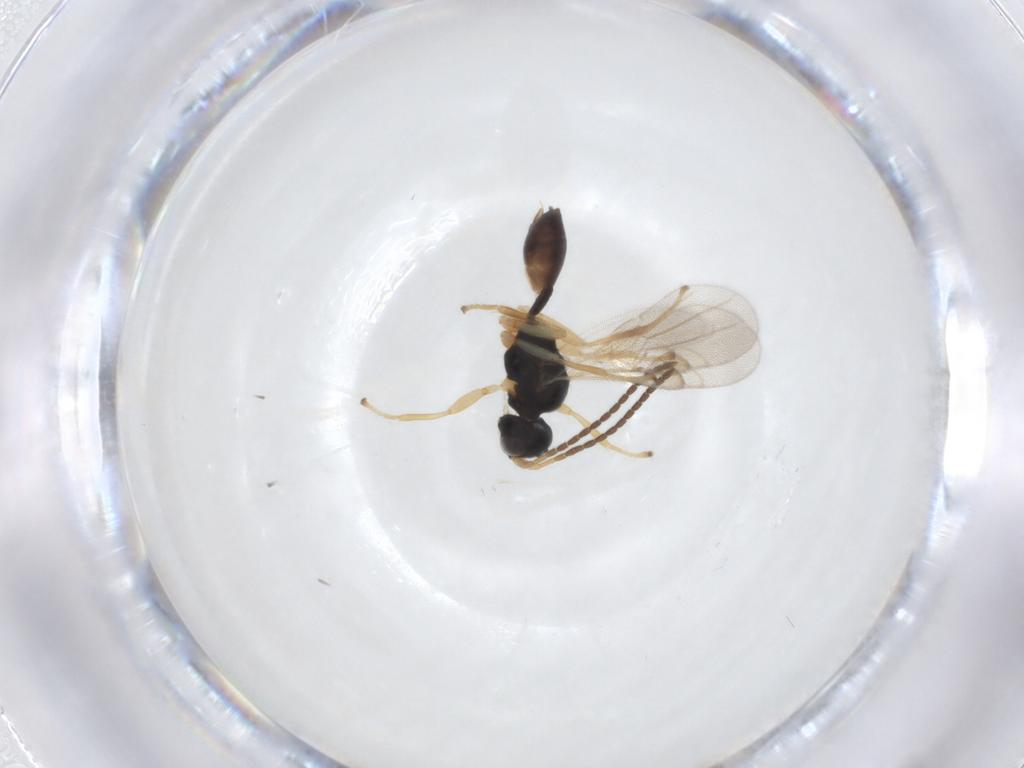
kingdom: Animalia
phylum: Arthropoda
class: Insecta
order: Hymenoptera
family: Braconidae
